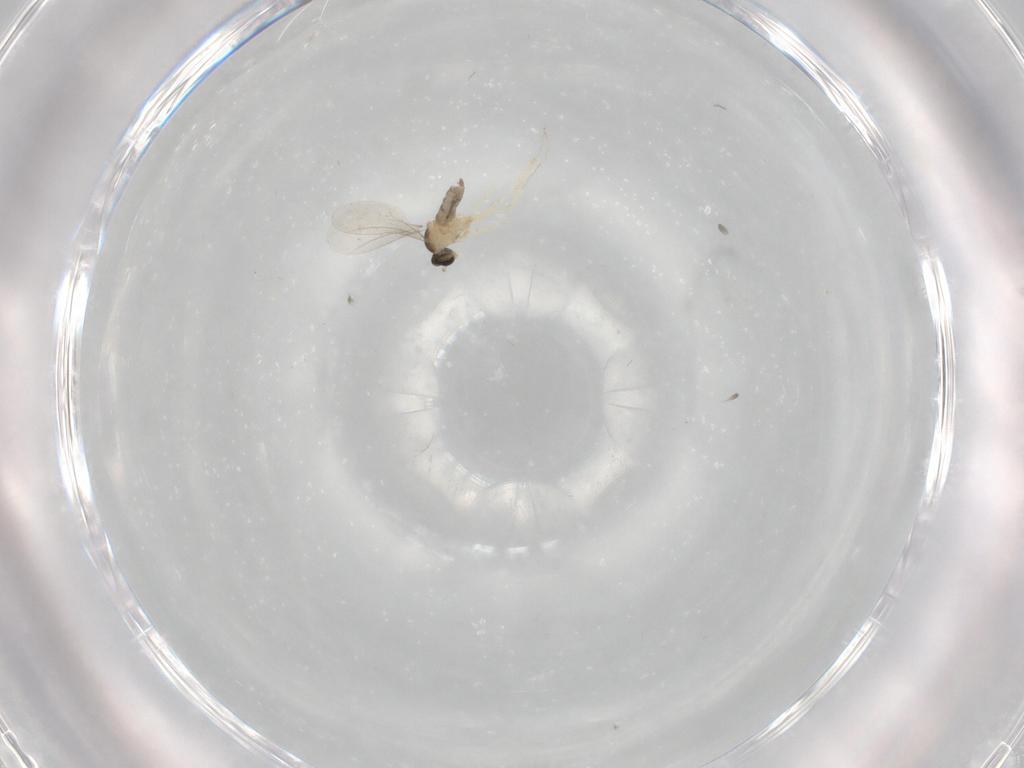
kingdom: Animalia
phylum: Arthropoda
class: Insecta
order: Diptera
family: Cecidomyiidae
